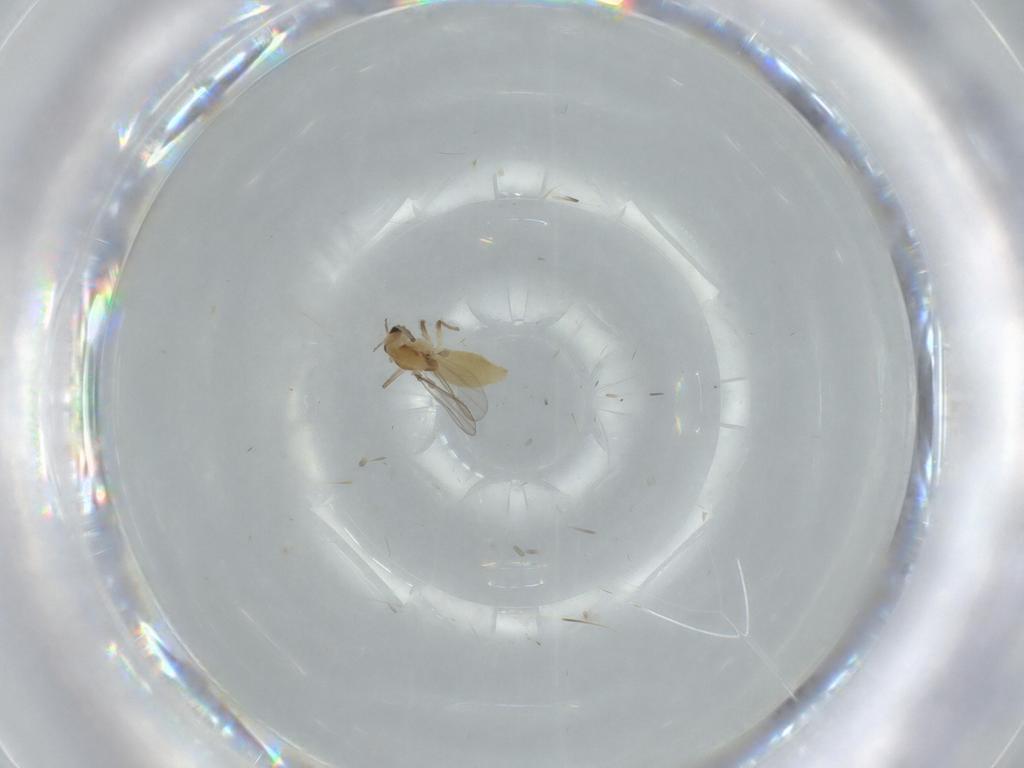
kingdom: Animalia
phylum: Arthropoda
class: Insecta
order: Diptera
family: Chironomidae
